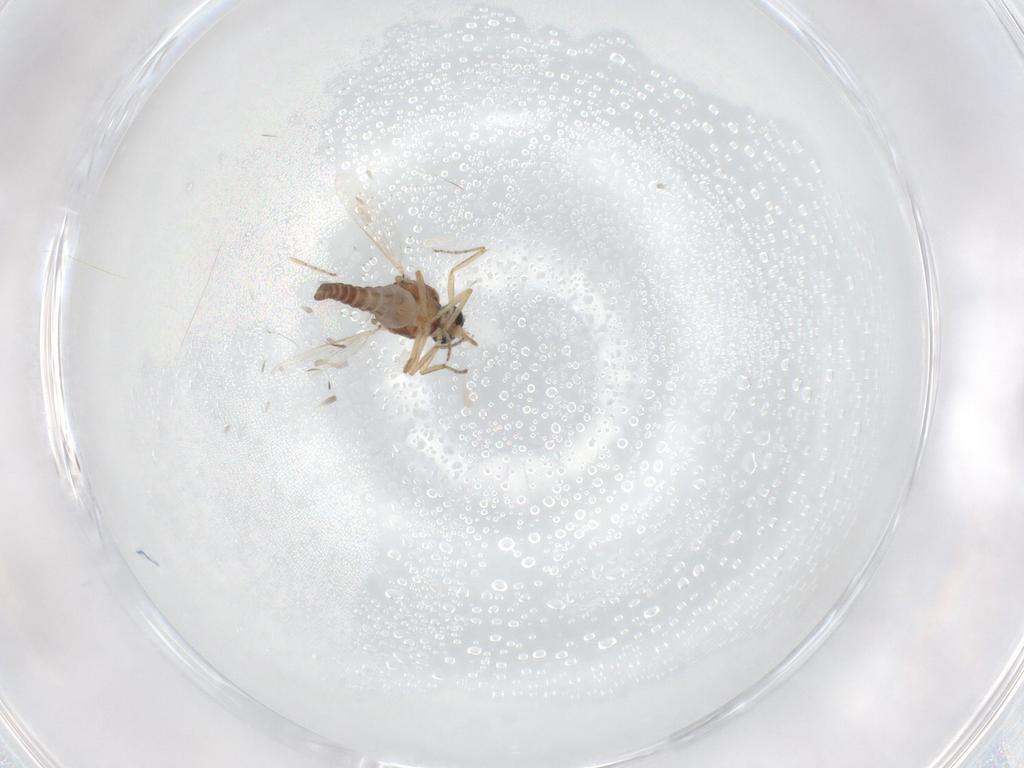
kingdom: Animalia
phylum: Arthropoda
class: Insecta
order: Diptera
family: Ceratopogonidae
